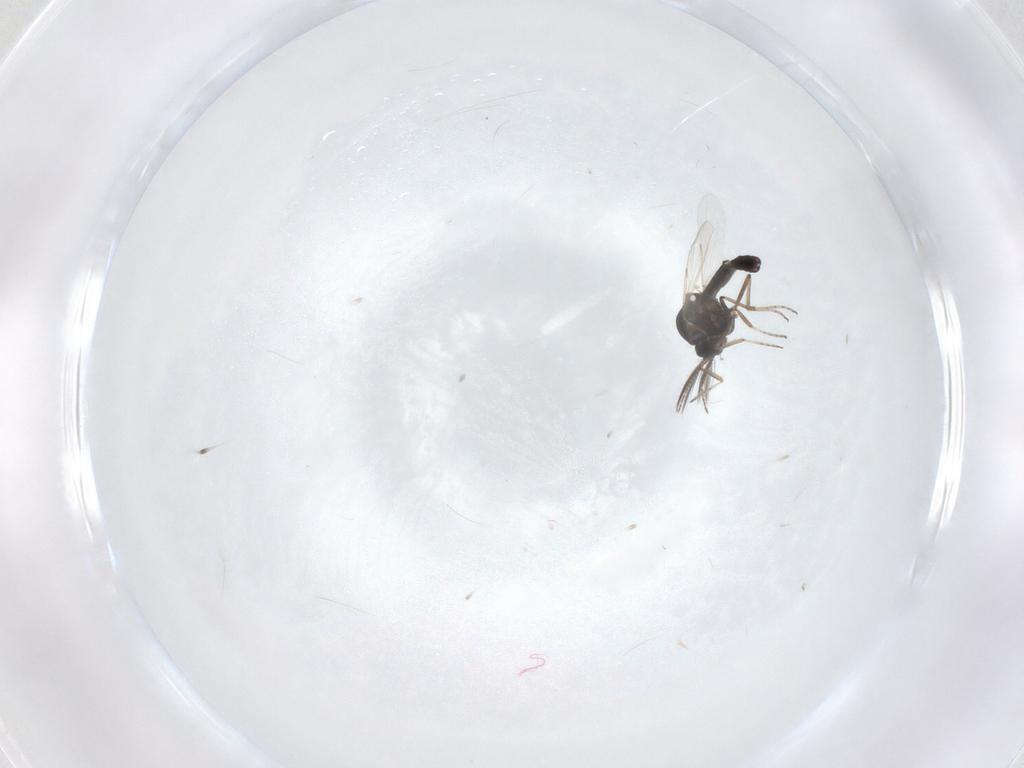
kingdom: Animalia
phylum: Arthropoda
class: Insecta
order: Diptera
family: Ceratopogonidae
